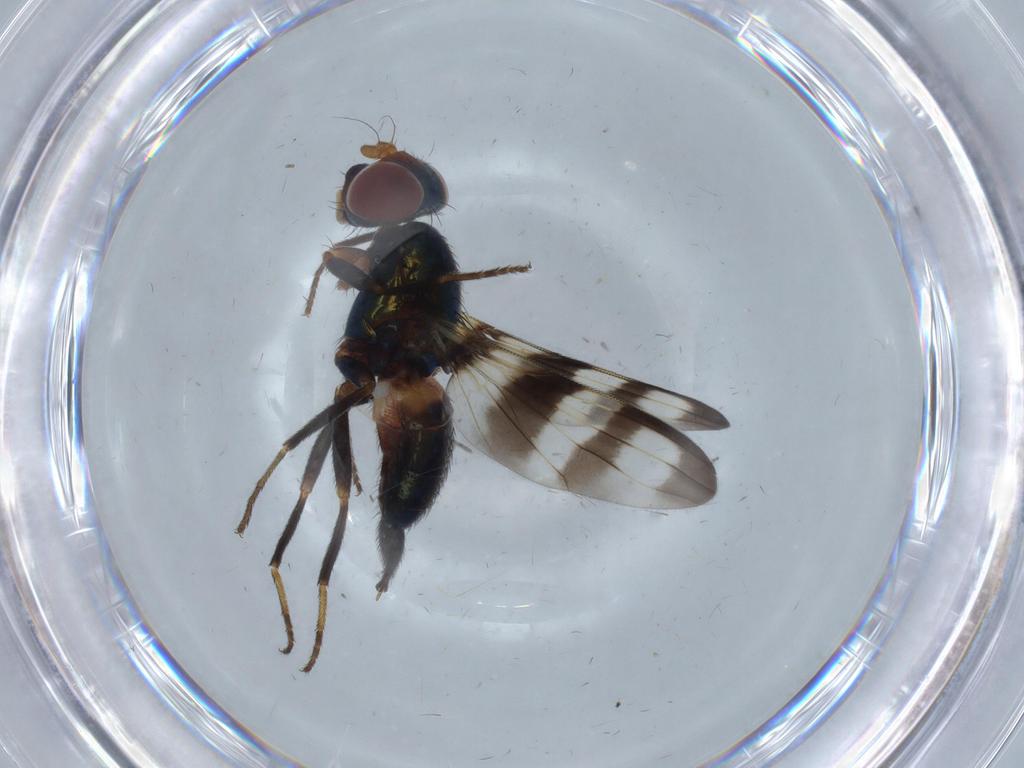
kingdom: Animalia
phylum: Arthropoda
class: Insecta
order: Diptera
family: Ulidiidae
